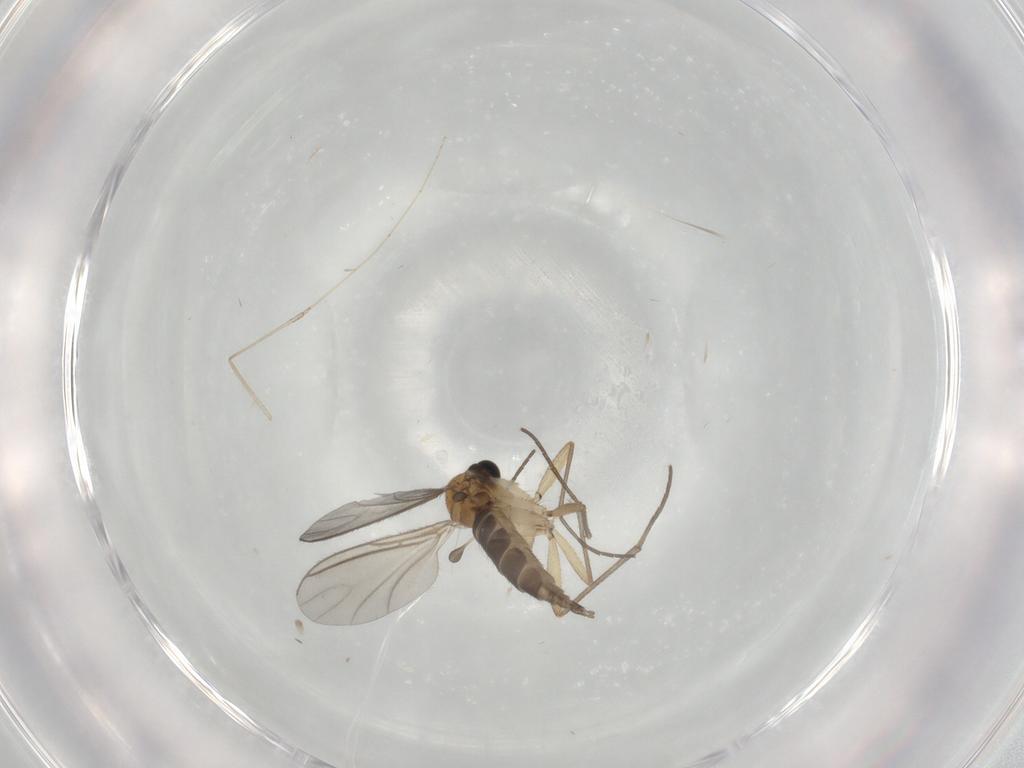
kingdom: Animalia
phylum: Arthropoda
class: Insecta
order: Diptera
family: Sciaridae
